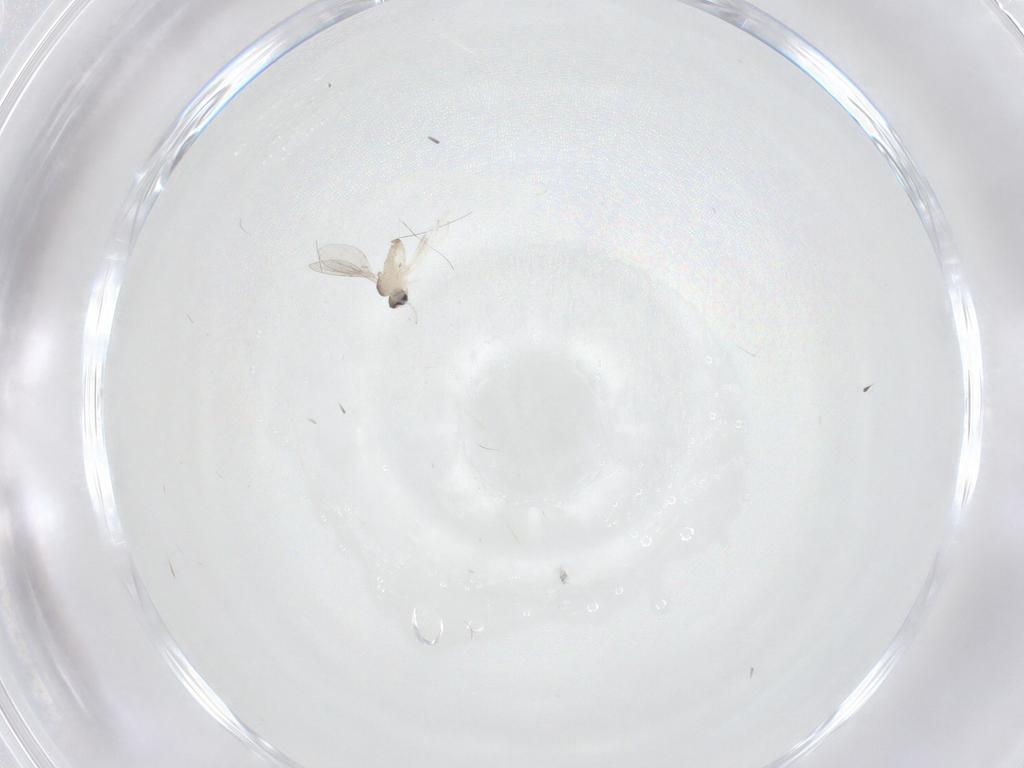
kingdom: Animalia
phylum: Arthropoda
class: Insecta
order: Diptera
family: Cecidomyiidae
